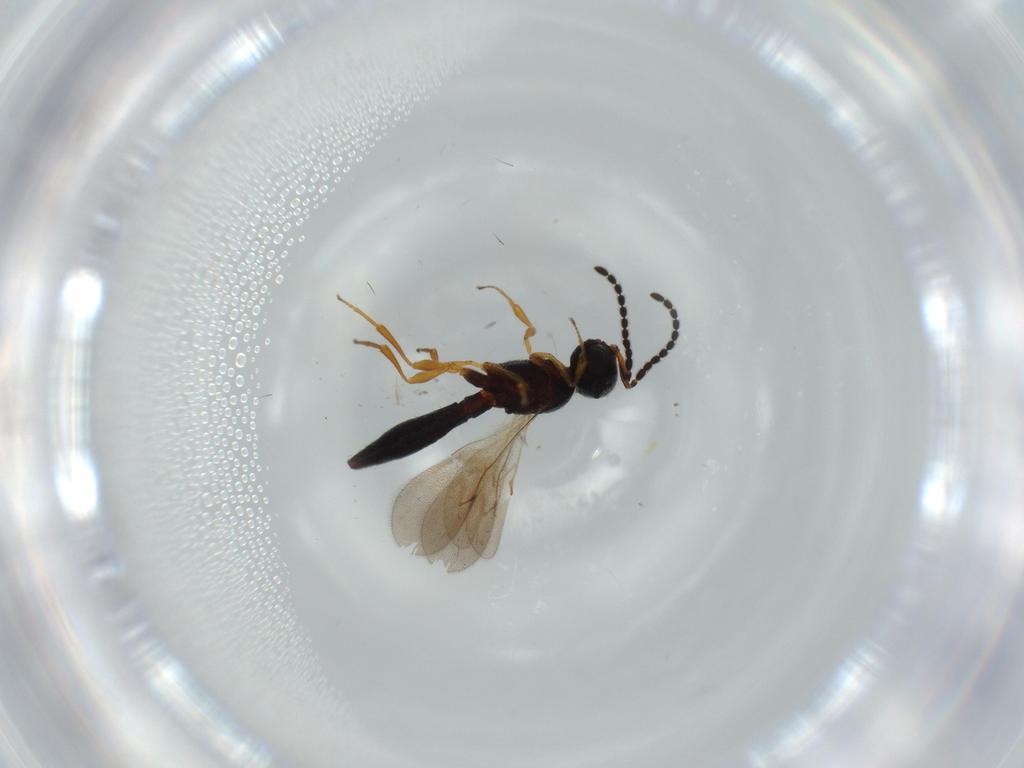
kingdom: Animalia
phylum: Arthropoda
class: Insecta
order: Hymenoptera
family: Scelionidae
